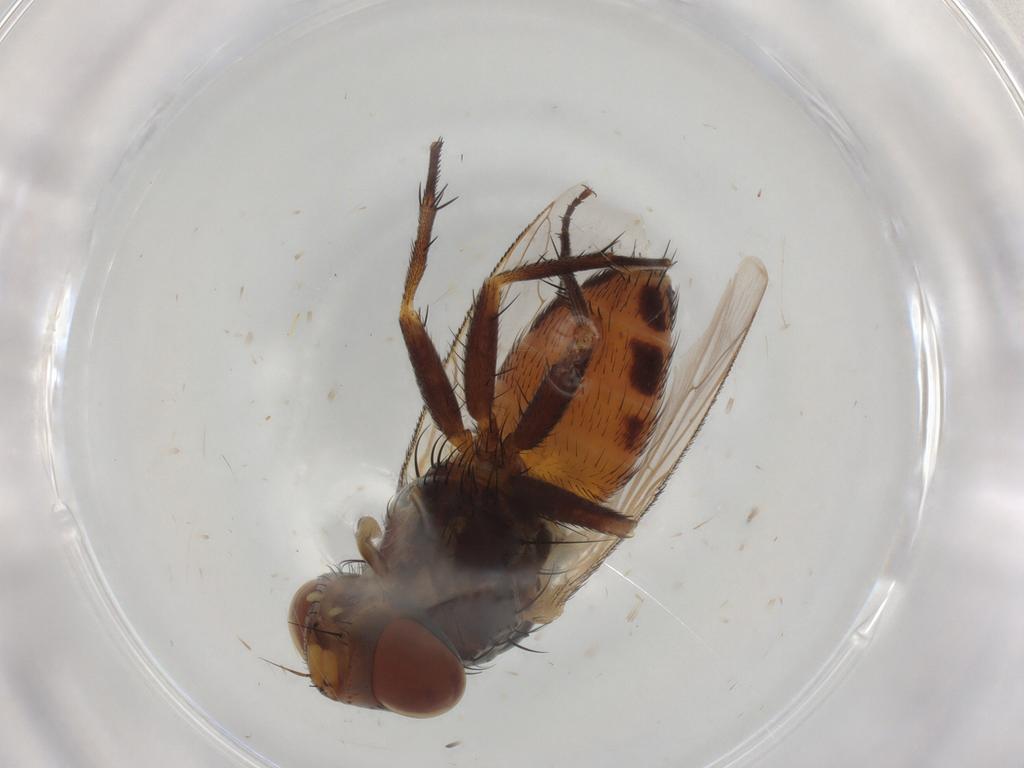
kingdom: Animalia
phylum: Arthropoda
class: Insecta
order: Diptera
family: Sarcophagidae
